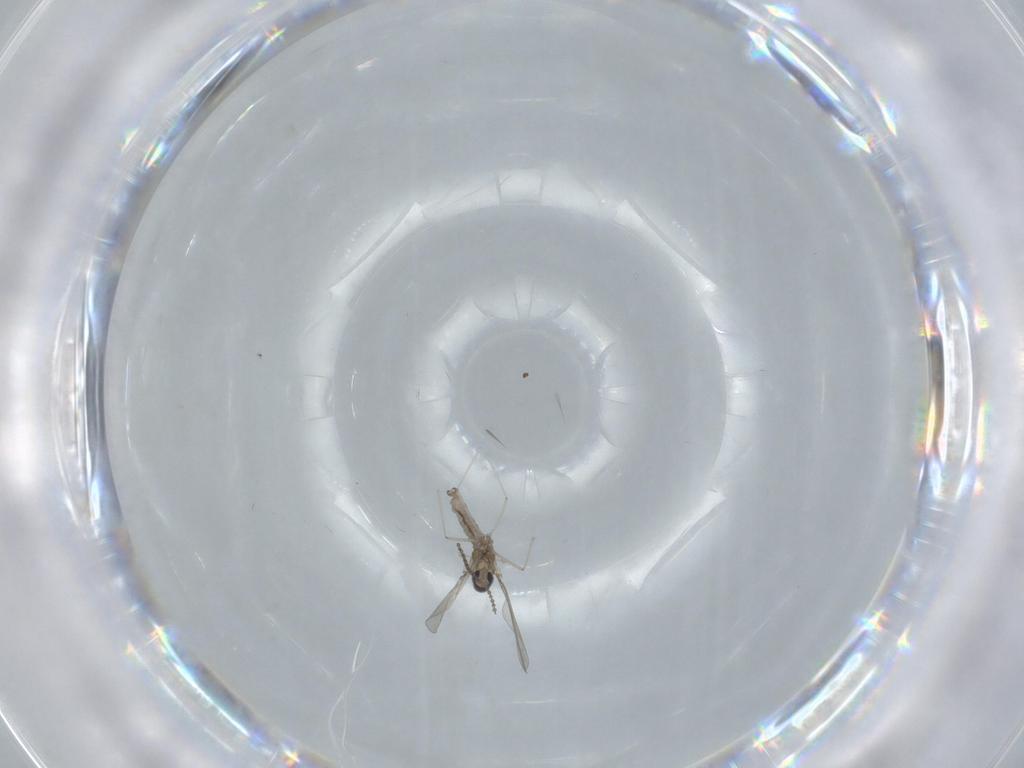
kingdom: Animalia
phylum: Arthropoda
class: Insecta
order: Diptera
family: Cecidomyiidae
